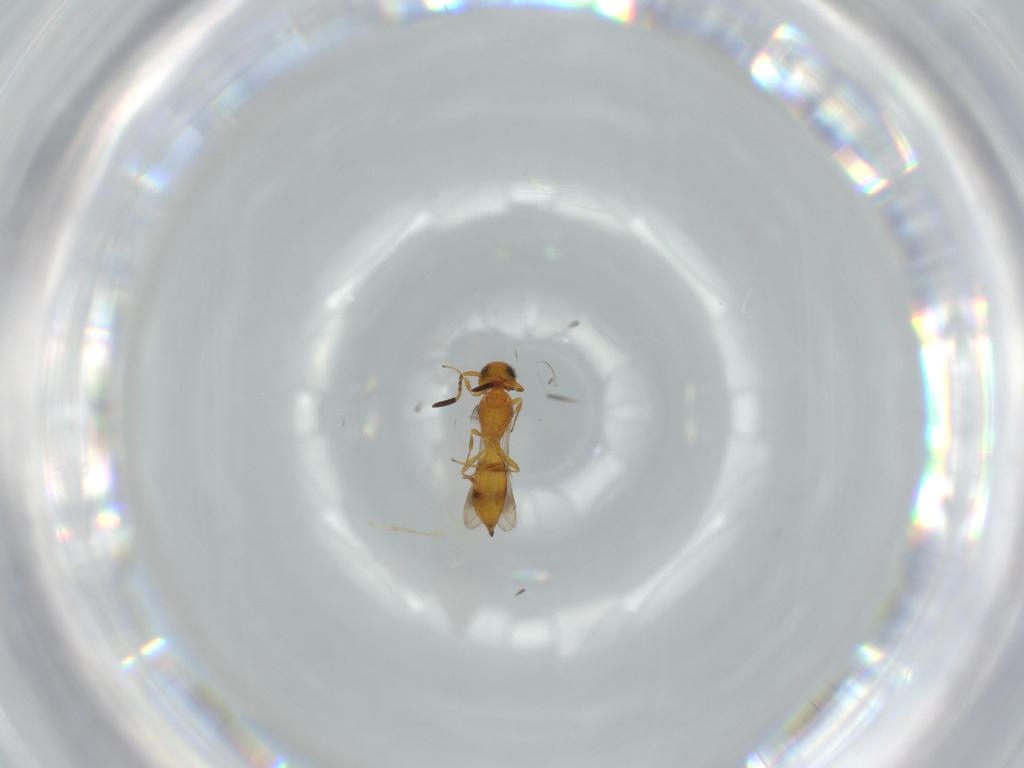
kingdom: Animalia
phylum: Arthropoda
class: Insecta
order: Hymenoptera
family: Scelionidae
